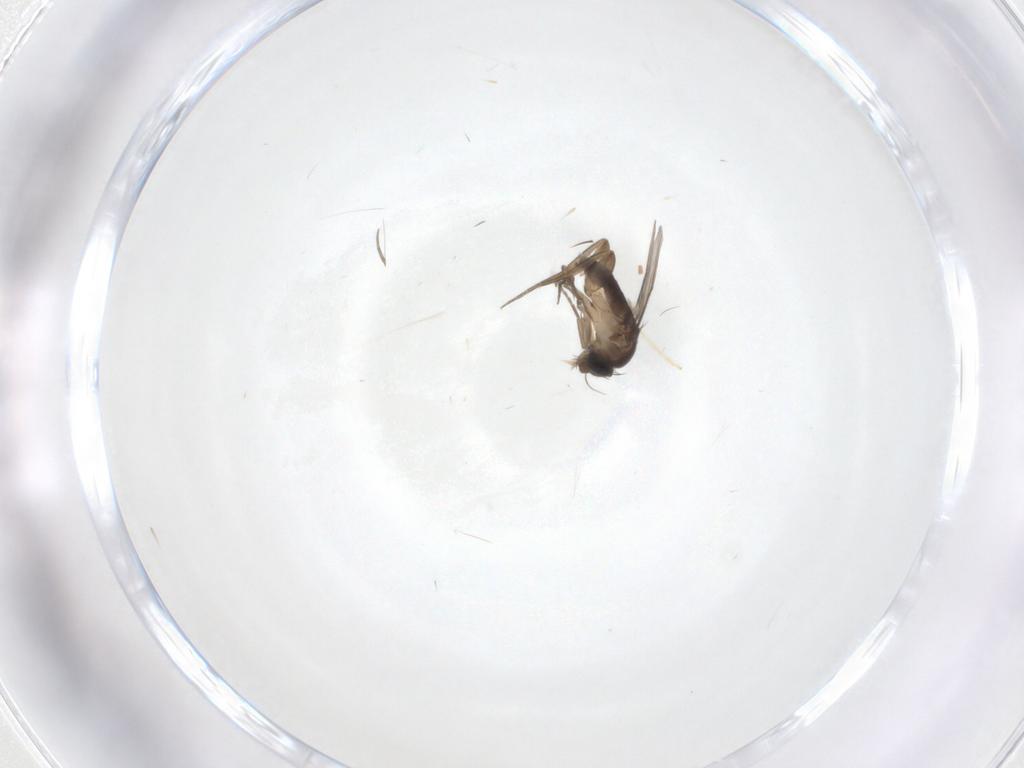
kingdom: Animalia
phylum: Arthropoda
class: Insecta
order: Diptera
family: Phoridae
